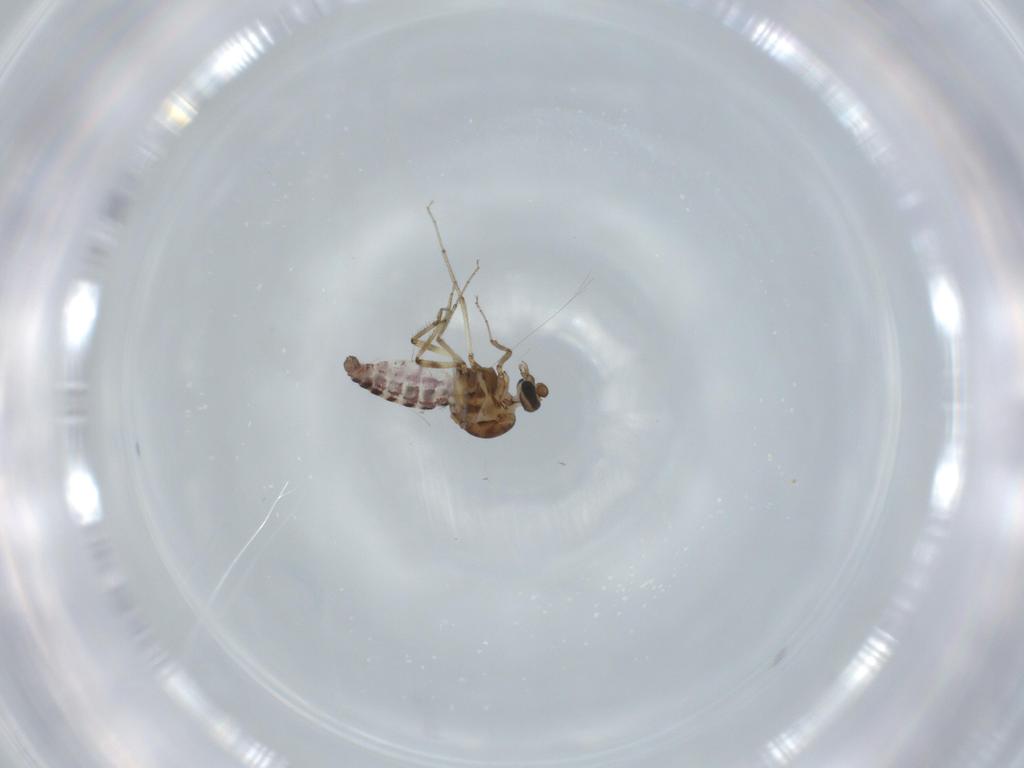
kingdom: Animalia
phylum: Arthropoda
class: Insecta
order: Diptera
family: Ceratopogonidae
